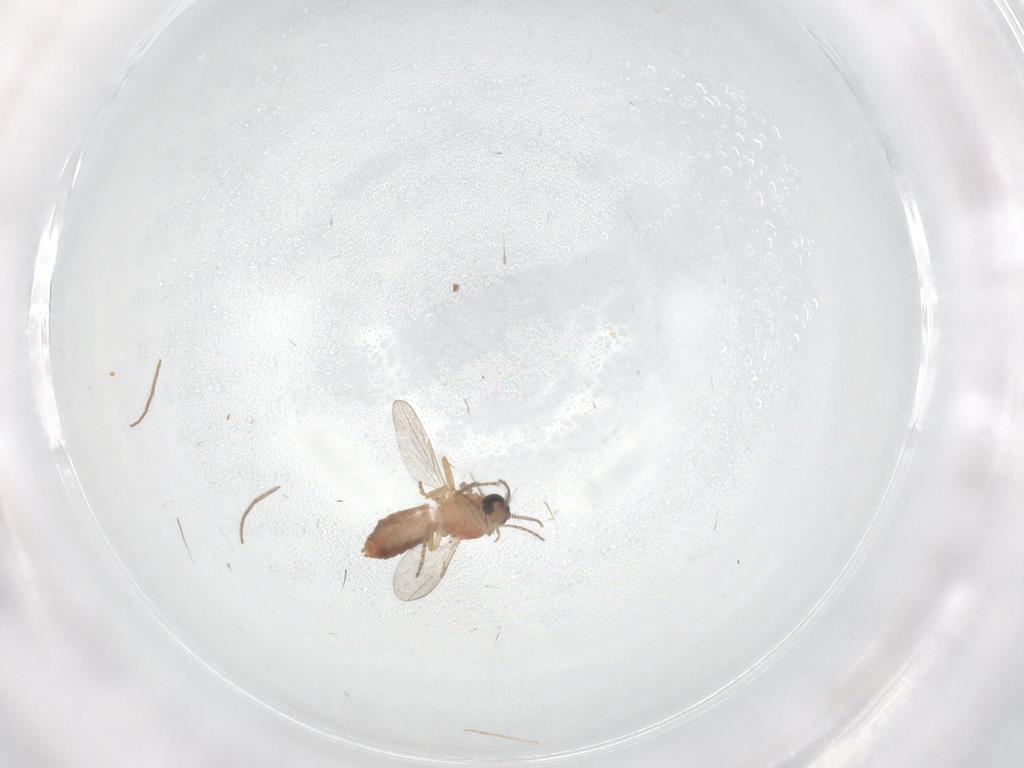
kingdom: Animalia
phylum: Arthropoda
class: Insecta
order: Diptera
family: Ceratopogonidae
